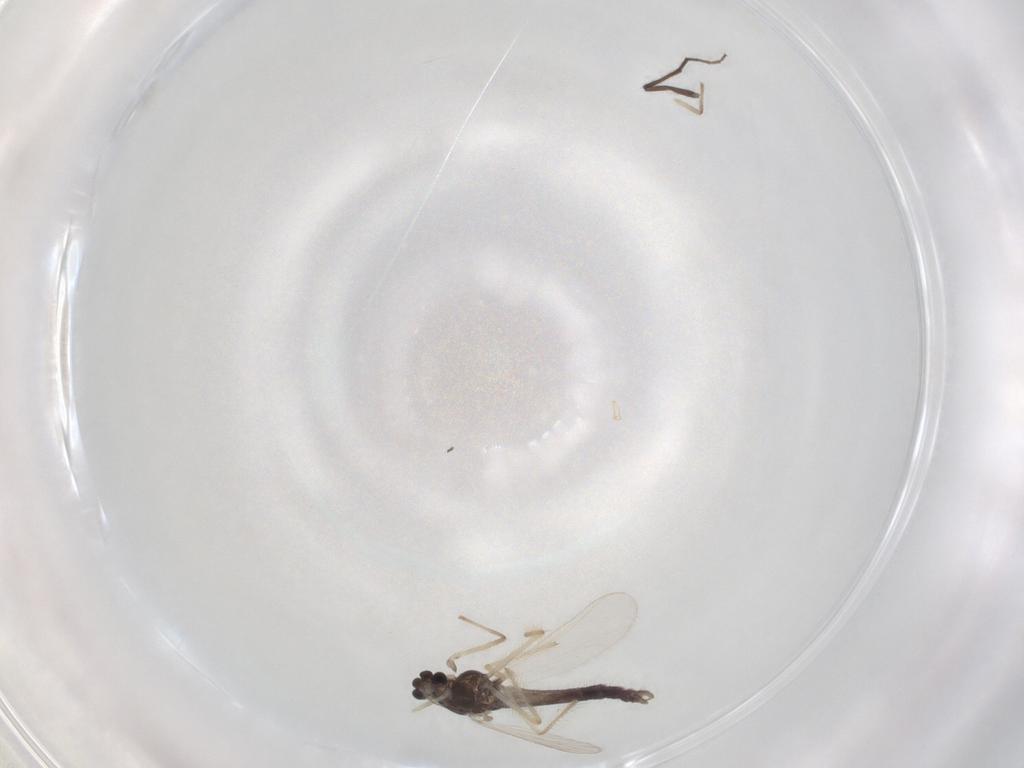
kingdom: Animalia
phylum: Arthropoda
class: Insecta
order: Diptera
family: Chironomidae
